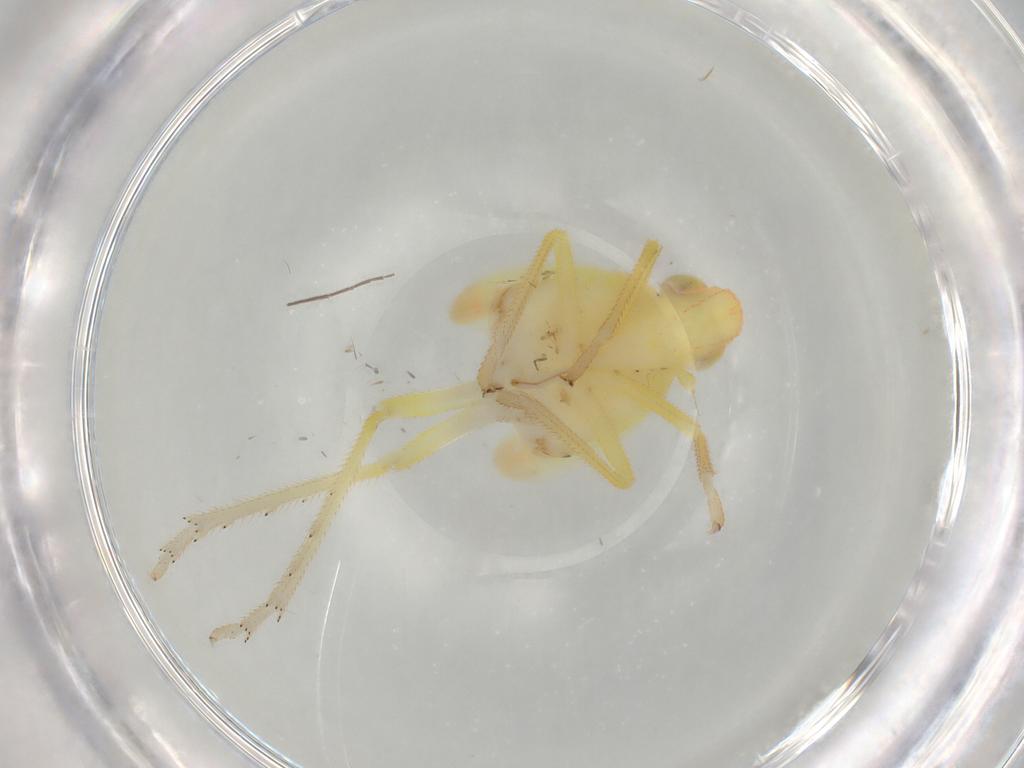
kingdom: Animalia
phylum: Arthropoda
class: Insecta
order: Hemiptera
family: Tropiduchidae
